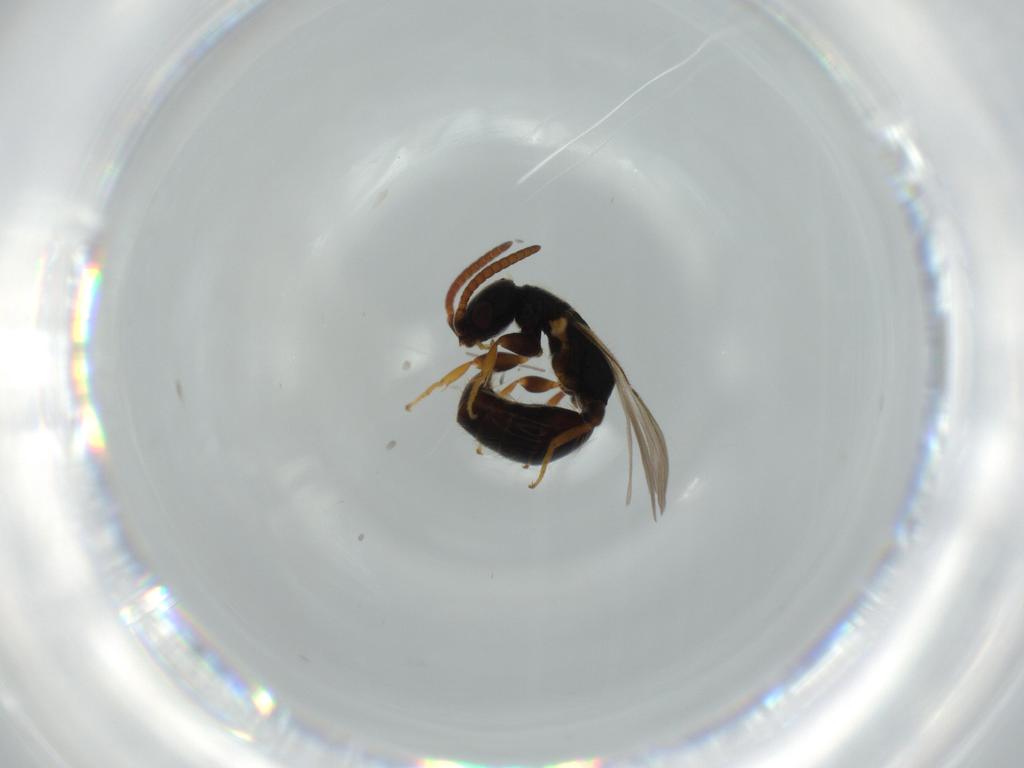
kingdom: Animalia
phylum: Arthropoda
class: Insecta
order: Hymenoptera
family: Bethylidae
